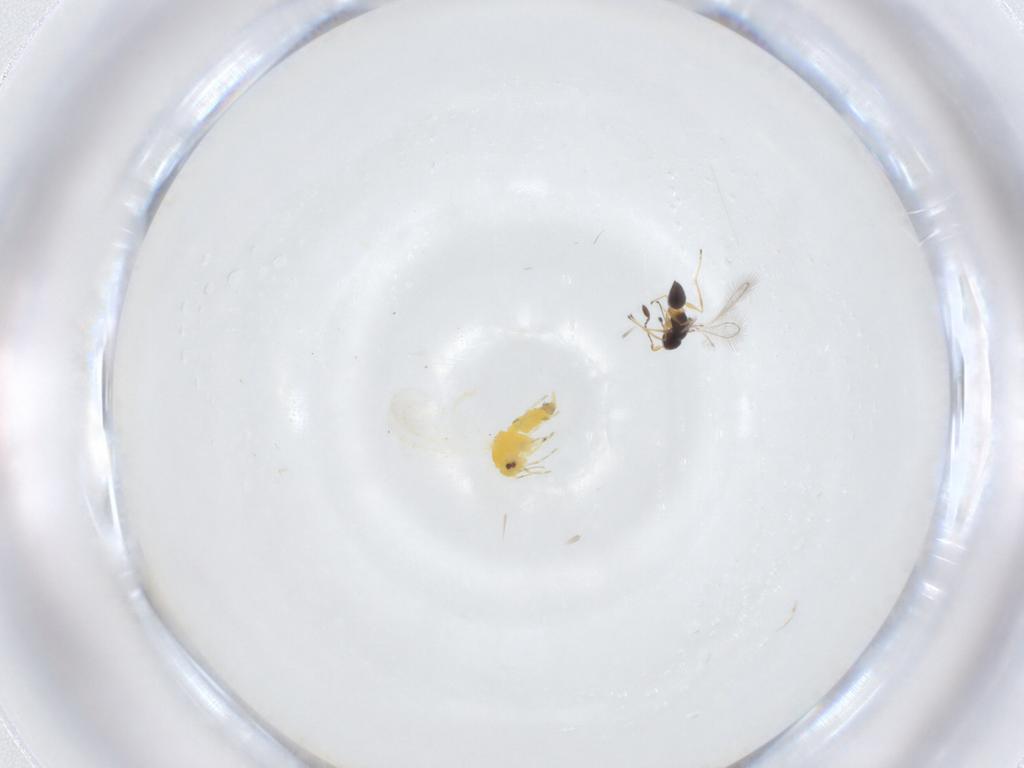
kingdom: Animalia
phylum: Arthropoda
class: Insecta
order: Hemiptera
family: Aleyrodidae
